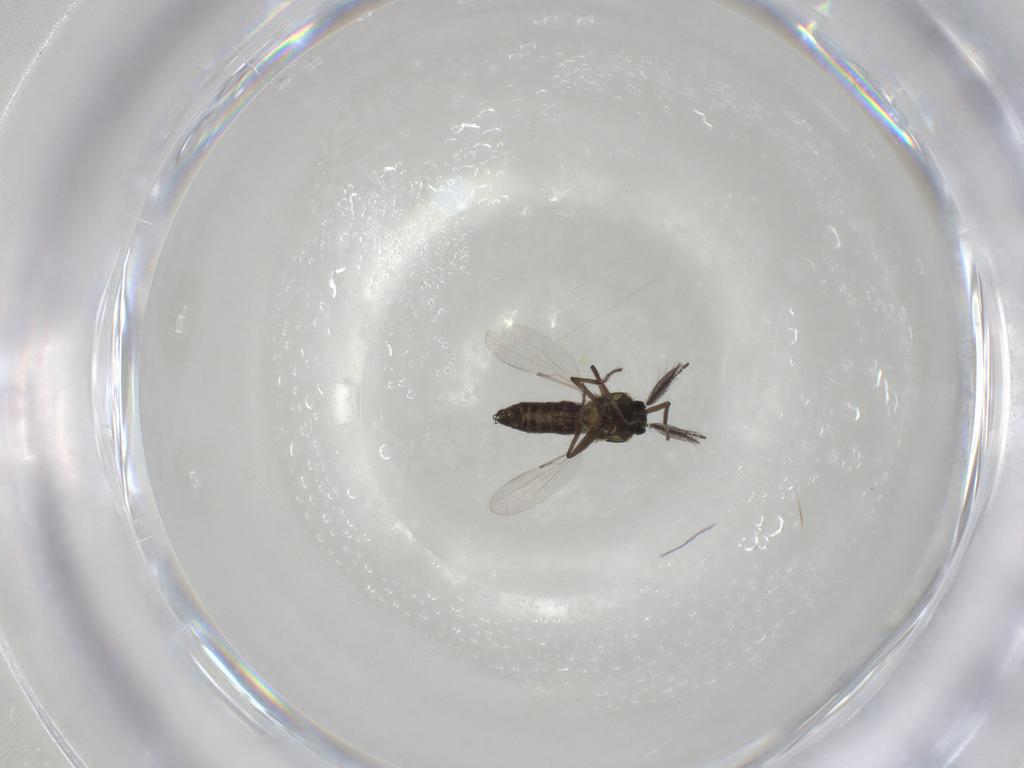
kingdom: Animalia
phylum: Arthropoda
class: Insecta
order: Diptera
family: Ceratopogonidae
